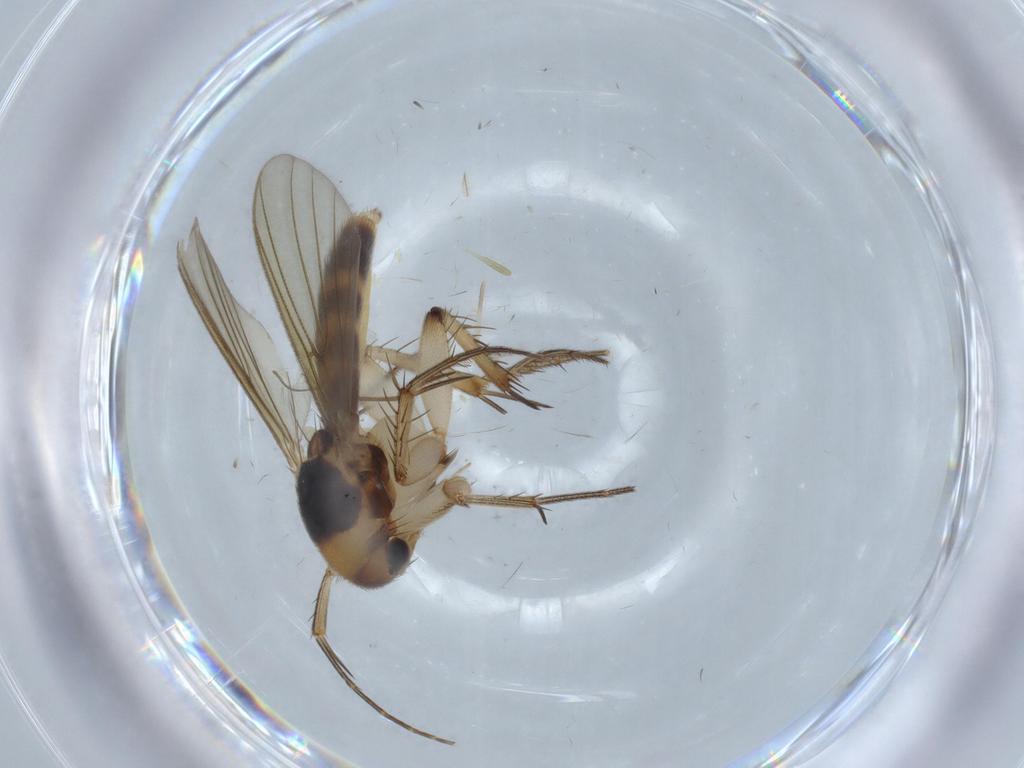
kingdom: Animalia
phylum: Arthropoda
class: Insecta
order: Diptera
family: Mycetophilidae
